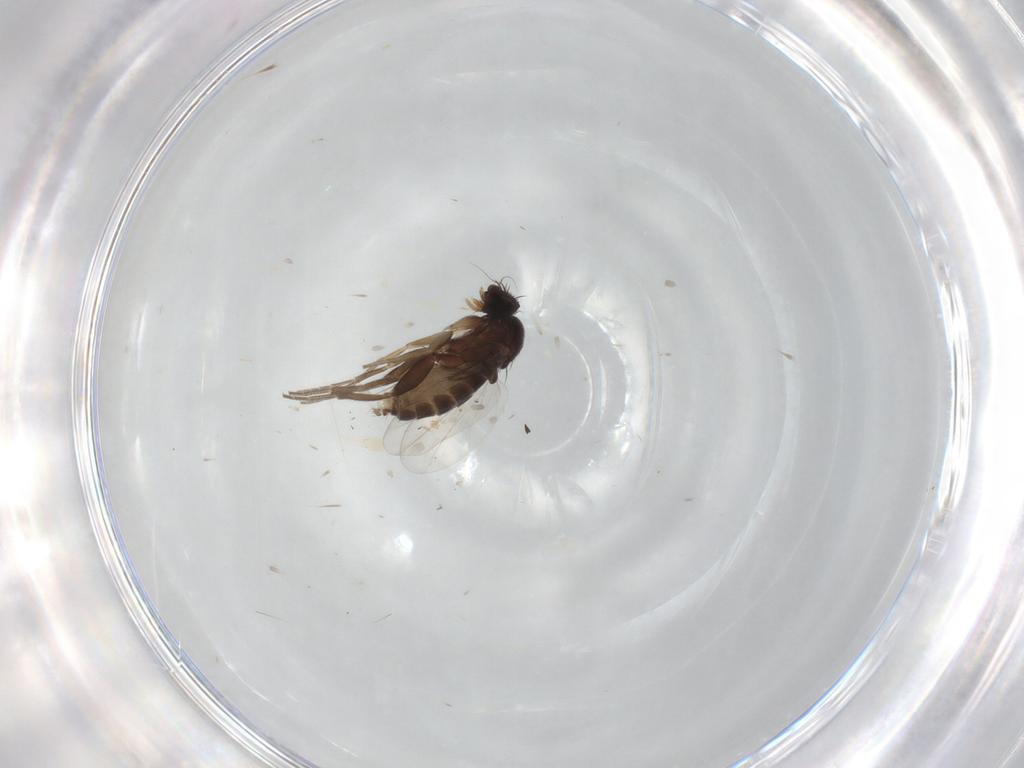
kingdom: Animalia
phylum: Arthropoda
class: Insecta
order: Diptera
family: Phoridae
